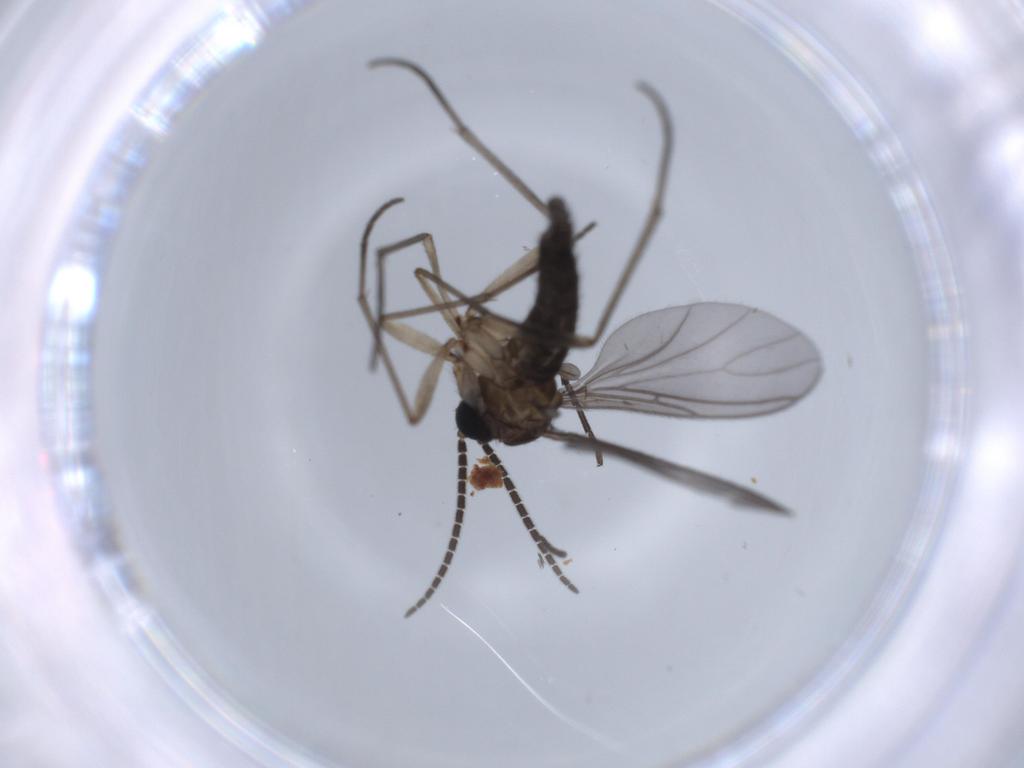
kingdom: Animalia
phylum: Arthropoda
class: Insecta
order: Diptera
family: Sciaridae
